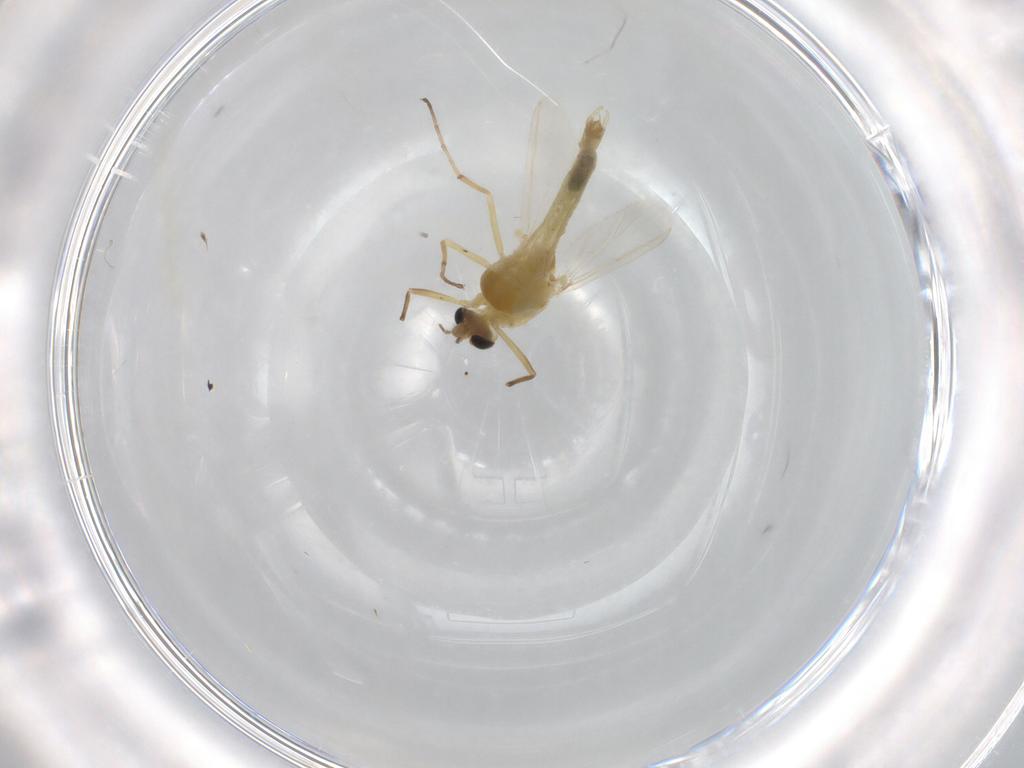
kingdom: Animalia
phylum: Arthropoda
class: Insecta
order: Diptera
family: Chironomidae
